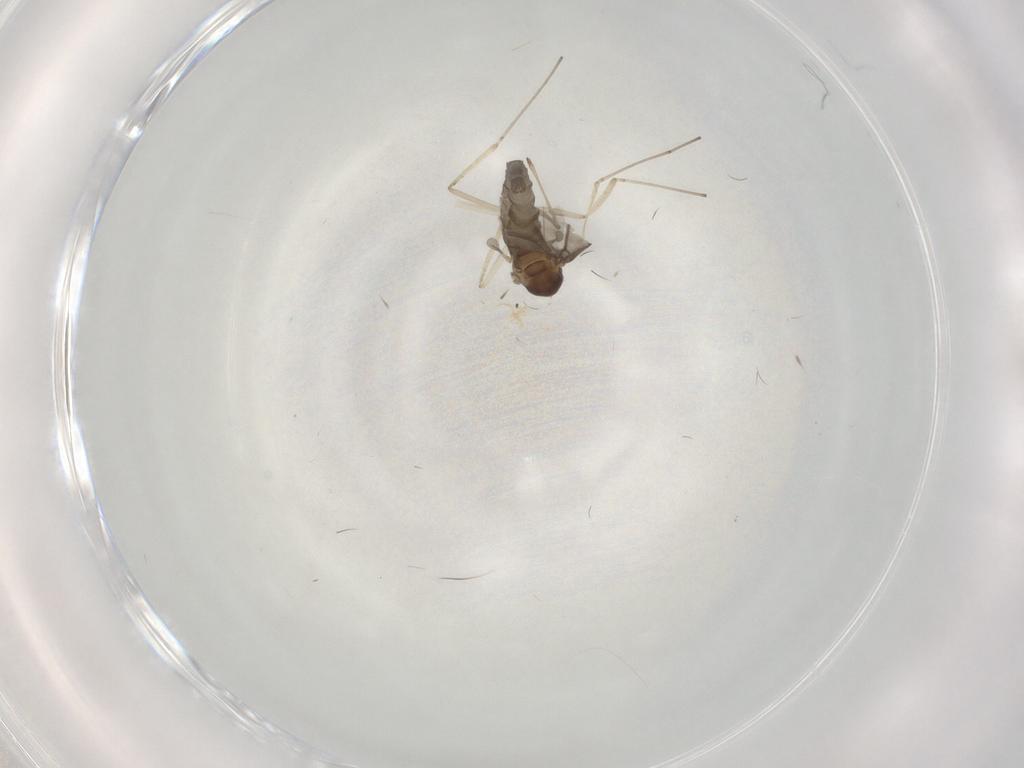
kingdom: Animalia
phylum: Arthropoda
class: Insecta
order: Diptera
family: Cecidomyiidae
